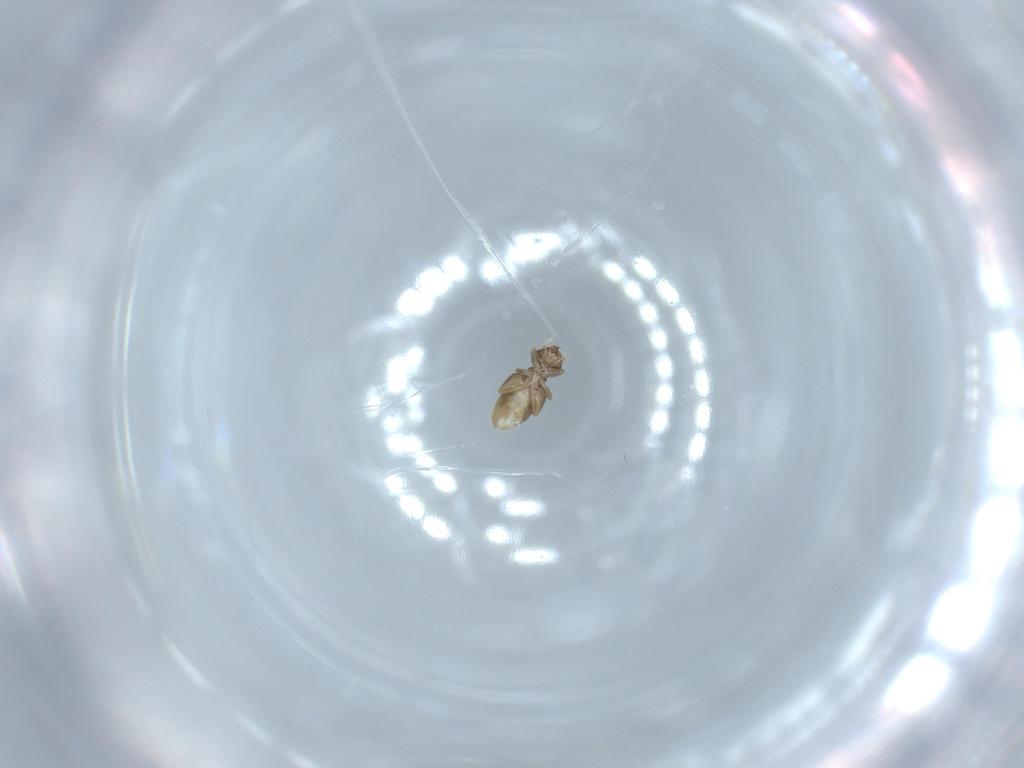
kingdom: Animalia
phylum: Arthropoda
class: Insecta
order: Psocodea
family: Liposcelididae
